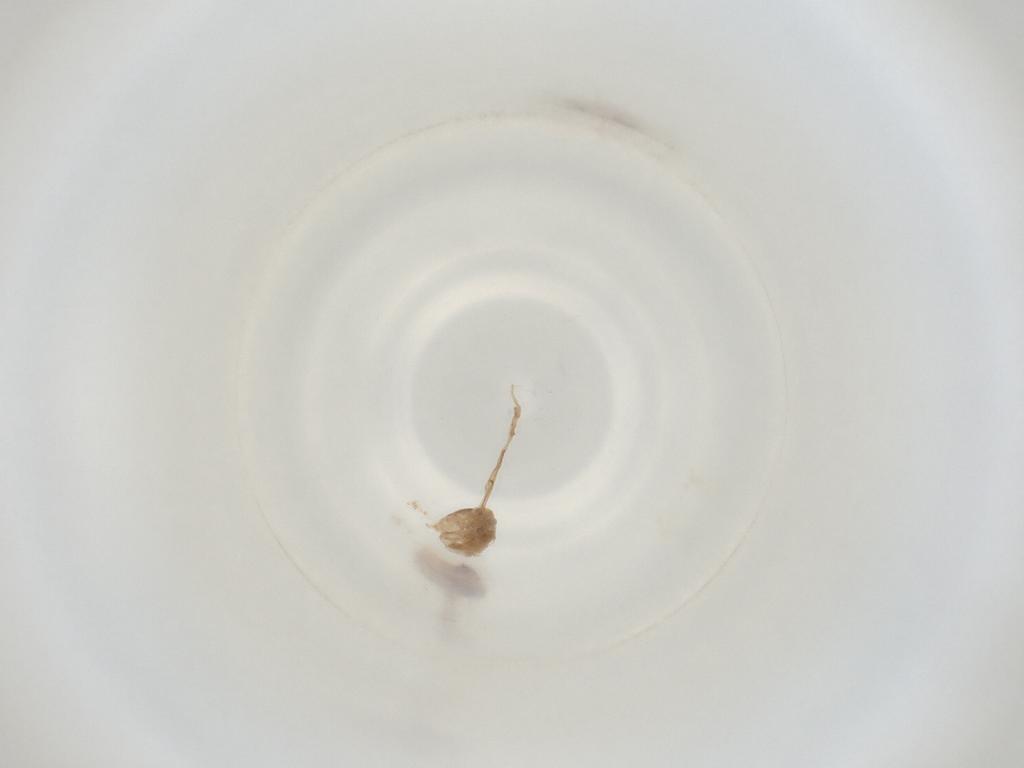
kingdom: Animalia
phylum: Arthropoda
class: Insecta
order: Diptera
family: Cecidomyiidae
